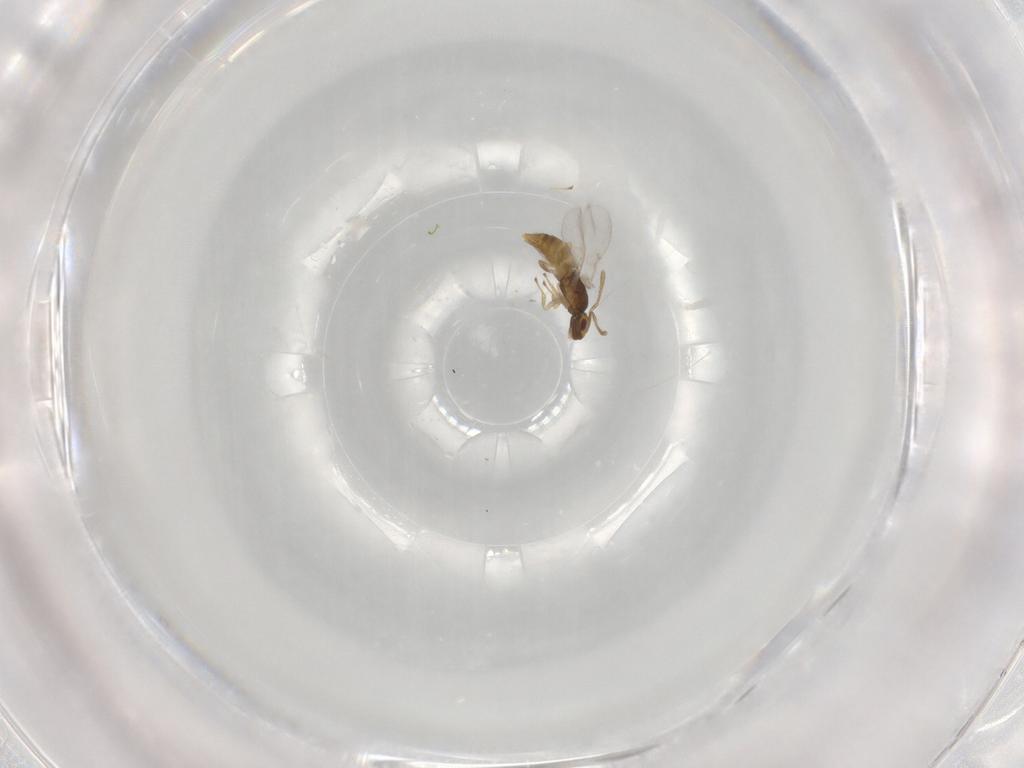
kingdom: Animalia
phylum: Arthropoda
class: Insecta
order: Hymenoptera
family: Encyrtidae
